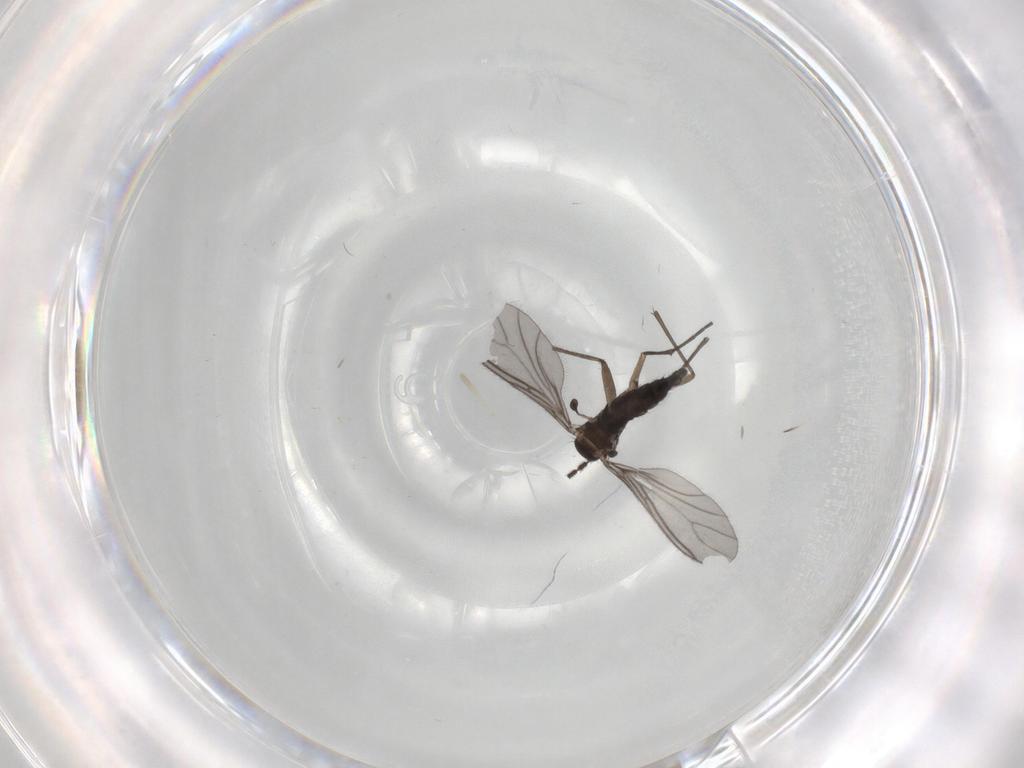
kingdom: Animalia
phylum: Arthropoda
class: Insecta
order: Diptera
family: Sciaridae
